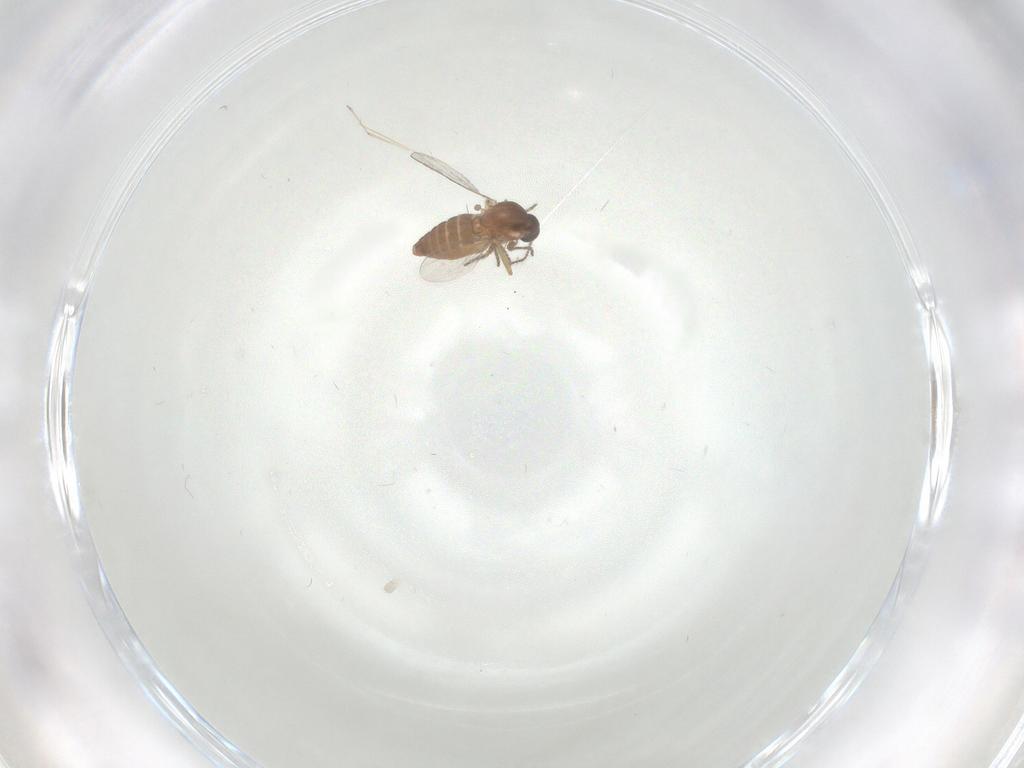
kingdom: Animalia
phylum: Arthropoda
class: Insecta
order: Diptera
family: Ceratopogonidae
